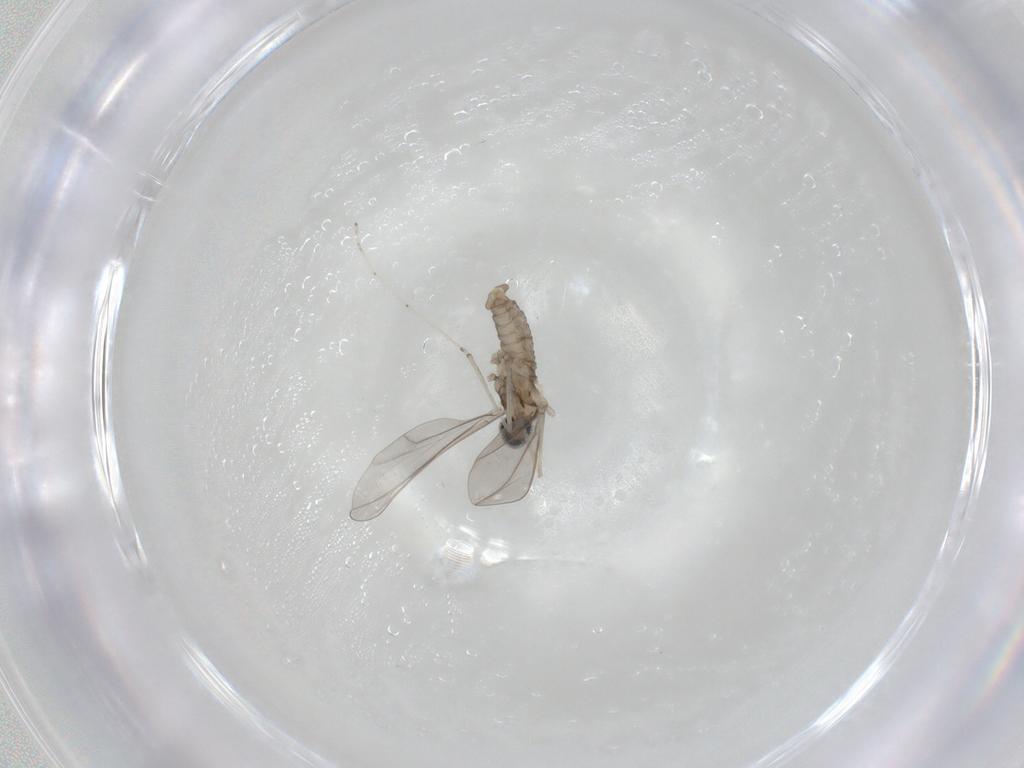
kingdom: Animalia
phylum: Arthropoda
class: Insecta
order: Diptera
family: Cecidomyiidae
